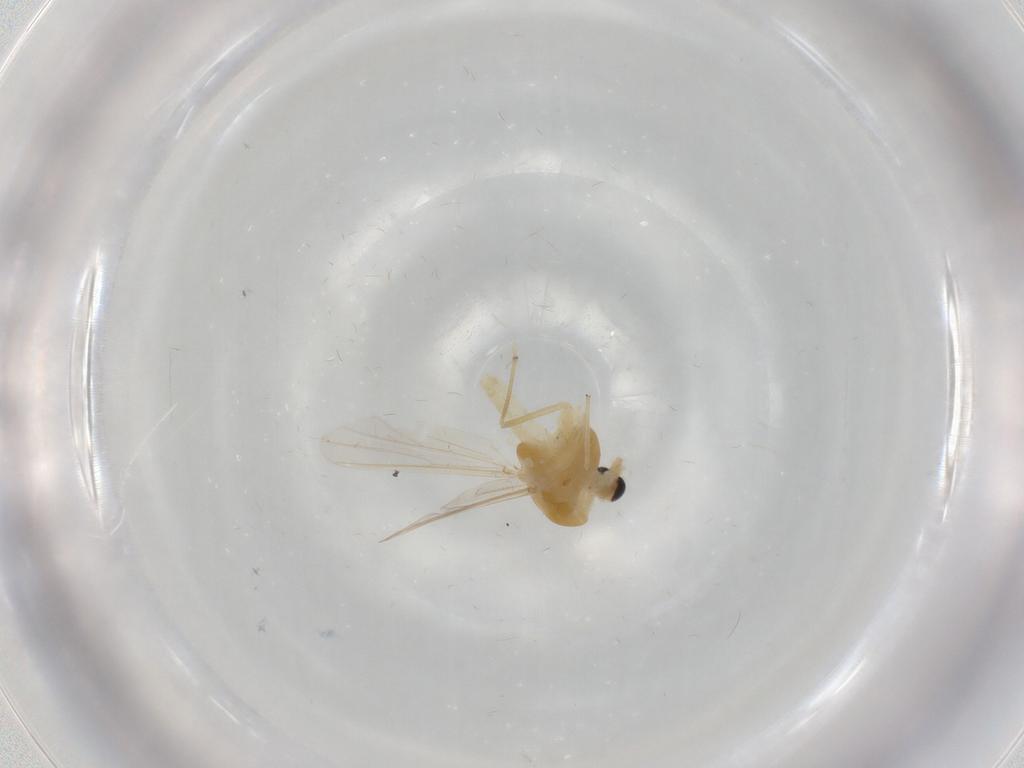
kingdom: Animalia
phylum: Arthropoda
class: Insecta
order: Diptera
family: Chironomidae
